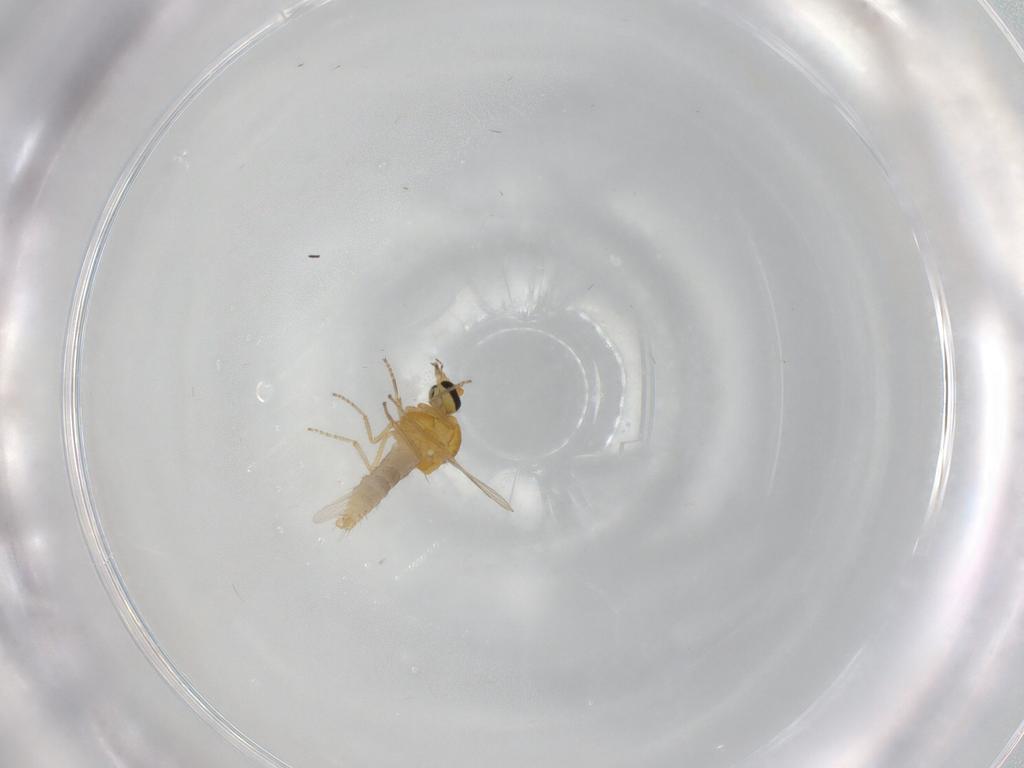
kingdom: Animalia
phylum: Arthropoda
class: Insecta
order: Diptera
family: Ceratopogonidae
